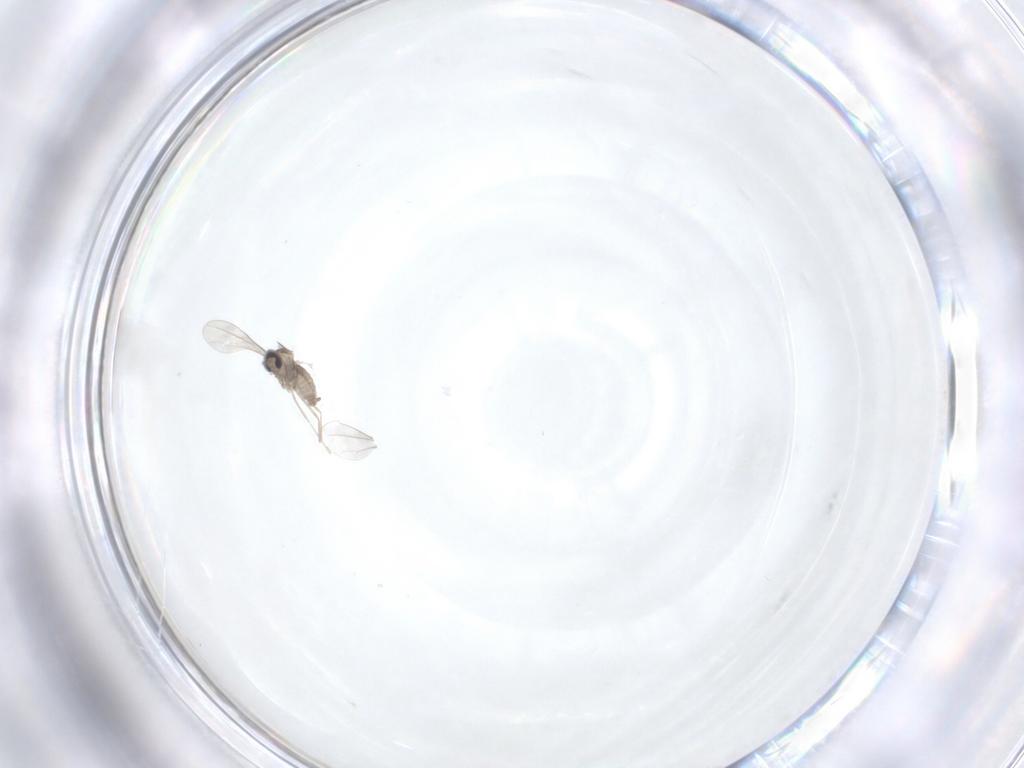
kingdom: Animalia
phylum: Arthropoda
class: Insecta
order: Diptera
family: Cecidomyiidae
